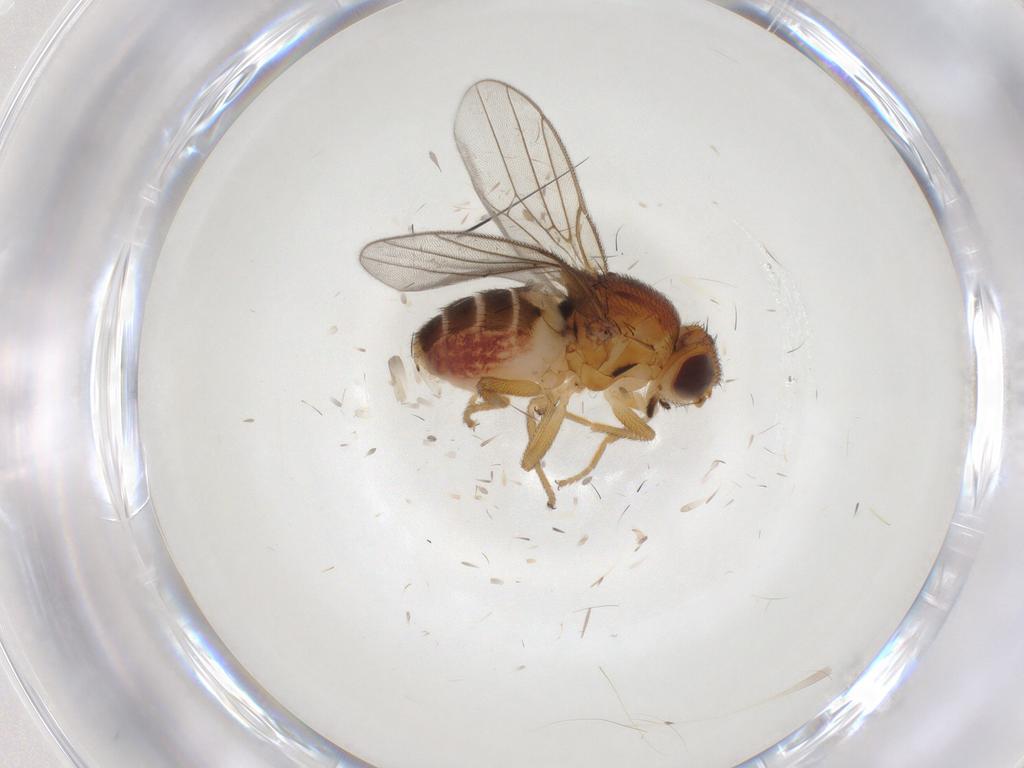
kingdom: Animalia
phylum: Arthropoda
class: Insecta
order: Diptera
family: Chloropidae
